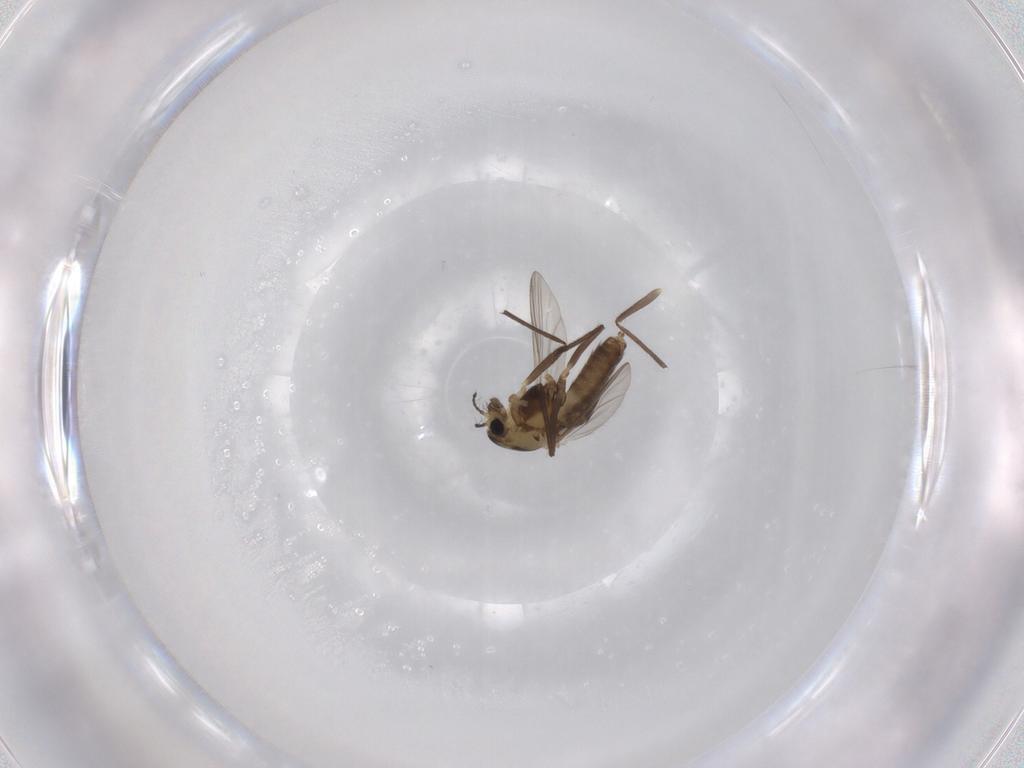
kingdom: Animalia
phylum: Arthropoda
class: Insecta
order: Diptera
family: Chironomidae
